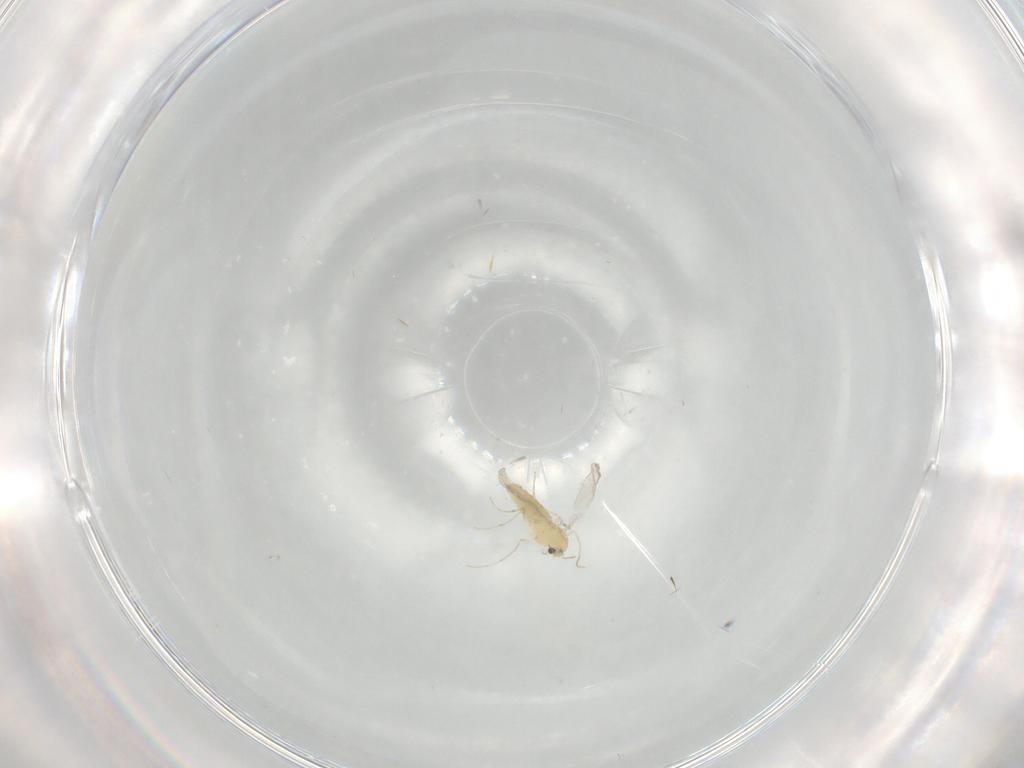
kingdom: Animalia
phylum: Arthropoda
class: Insecta
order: Diptera
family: Chironomidae
